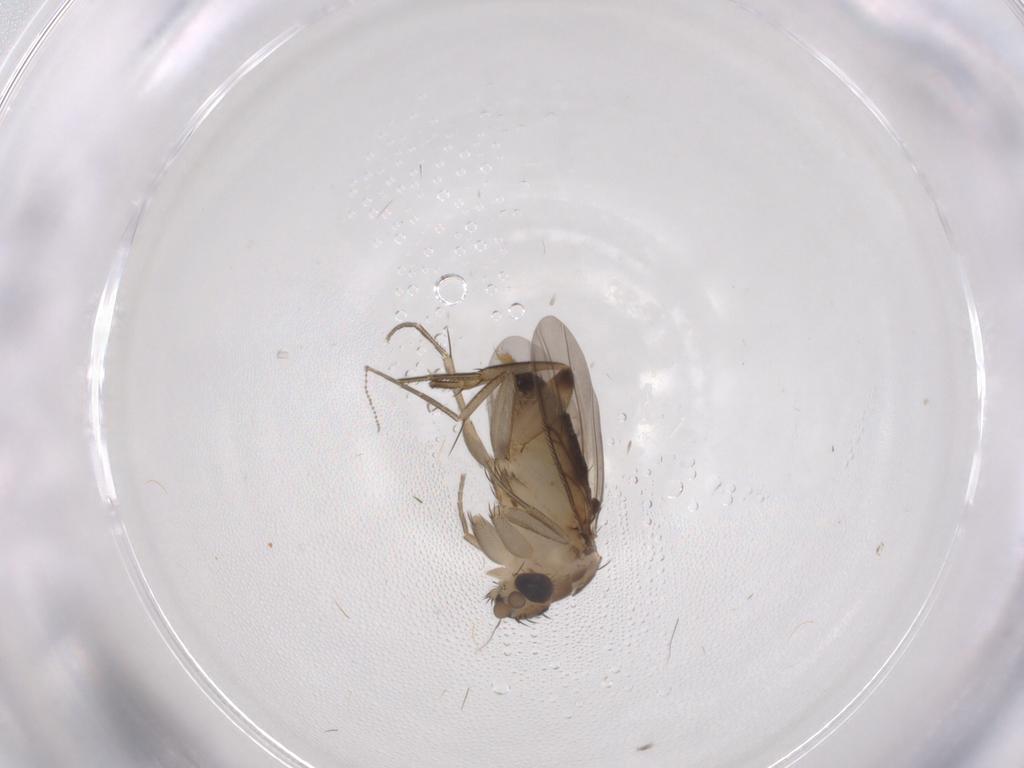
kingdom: Animalia
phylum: Arthropoda
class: Insecta
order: Diptera
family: Phoridae
